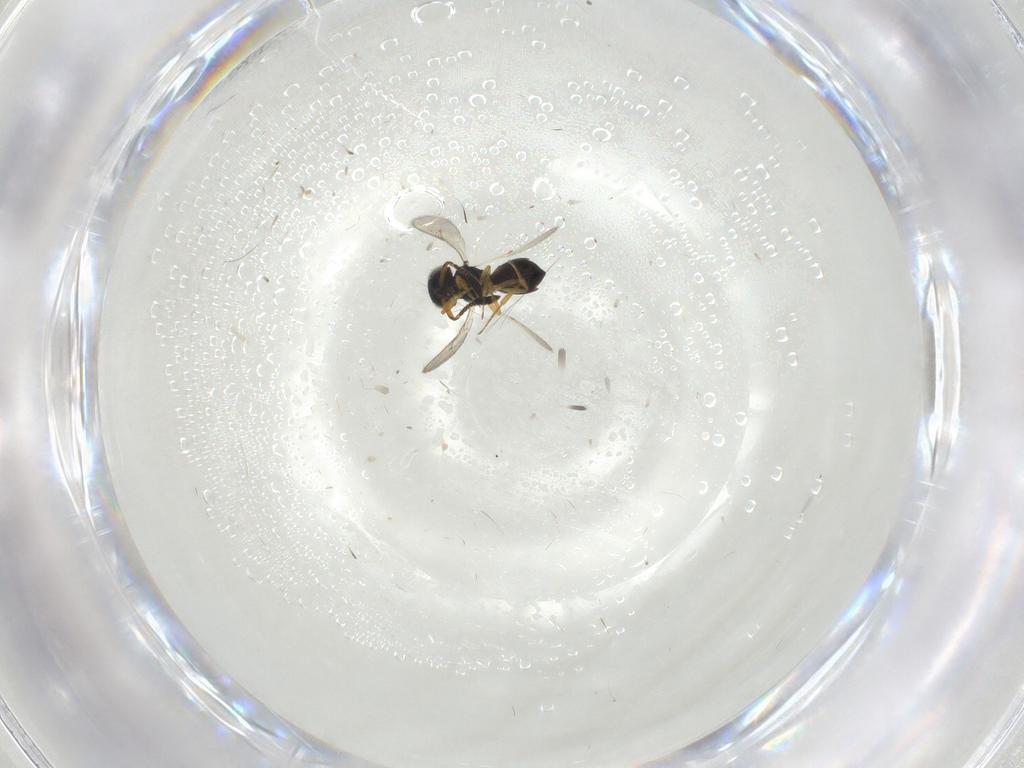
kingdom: Animalia
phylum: Arthropoda
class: Insecta
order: Hymenoptera
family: Scelionidae
